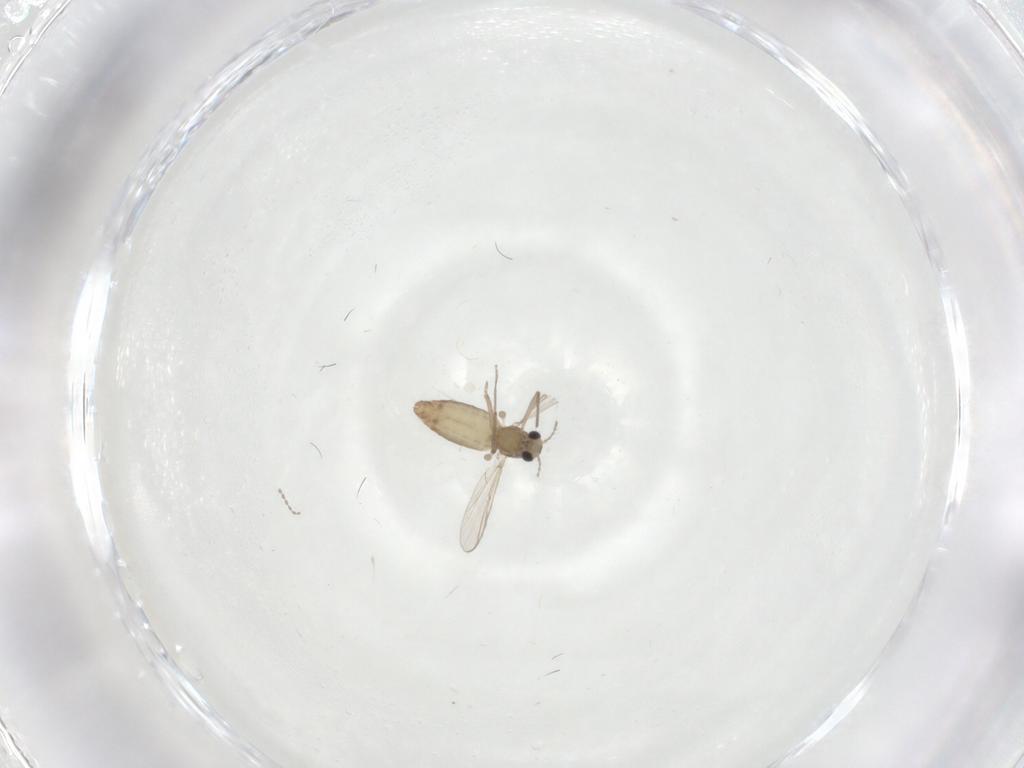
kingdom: Animalia
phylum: Arthropoda
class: Insecta
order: Diptera
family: Chironomidae
